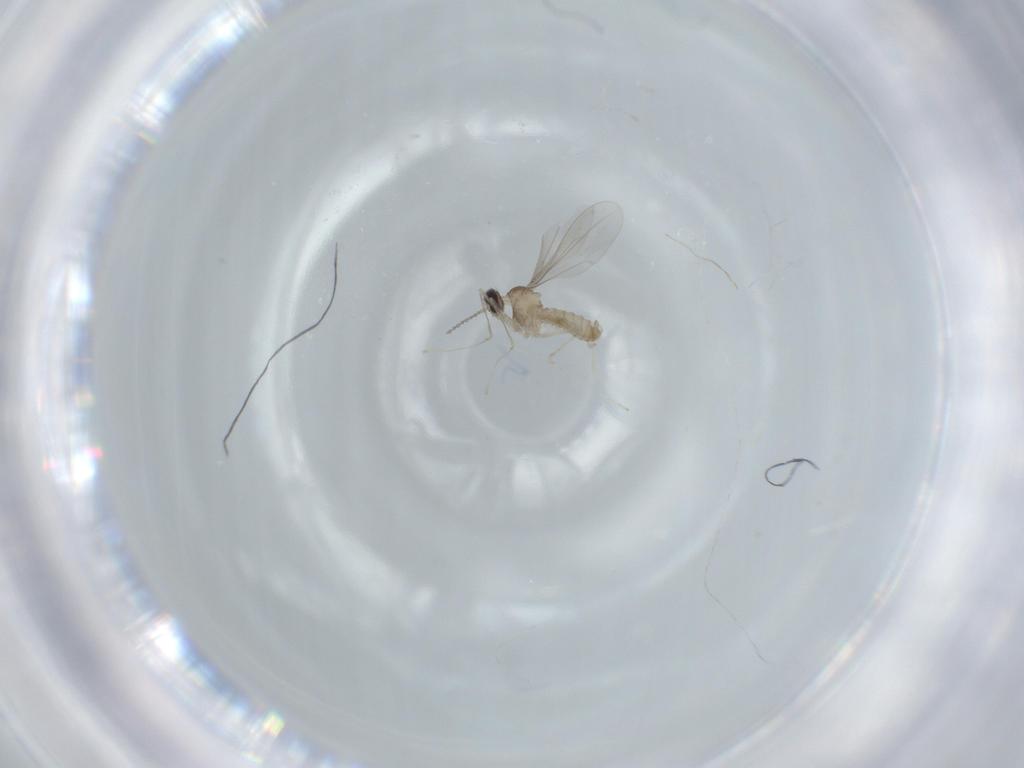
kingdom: Animalia
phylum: Arthropoda
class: Insecta
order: Diptera
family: Cecidomyiidae
